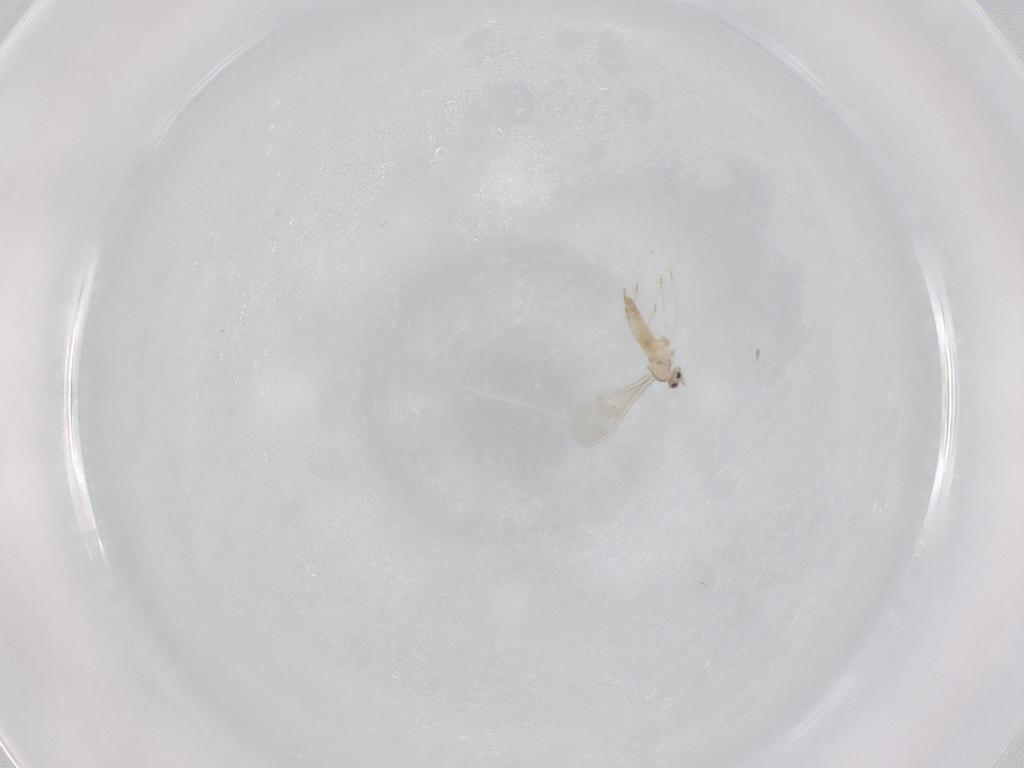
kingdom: Animalia
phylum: Arthropoda
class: Insecta
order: Diptera
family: Cecidomyiidae
